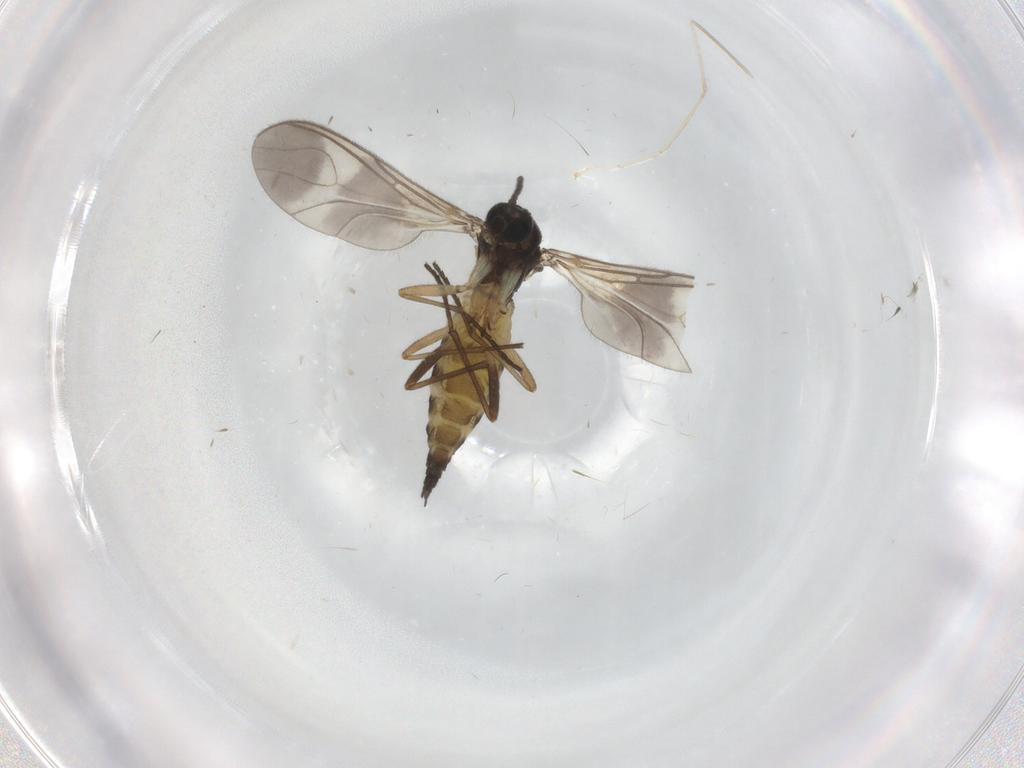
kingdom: Animalia
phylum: Arthropoda
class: Insecta
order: Diptera
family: Sciaridae
